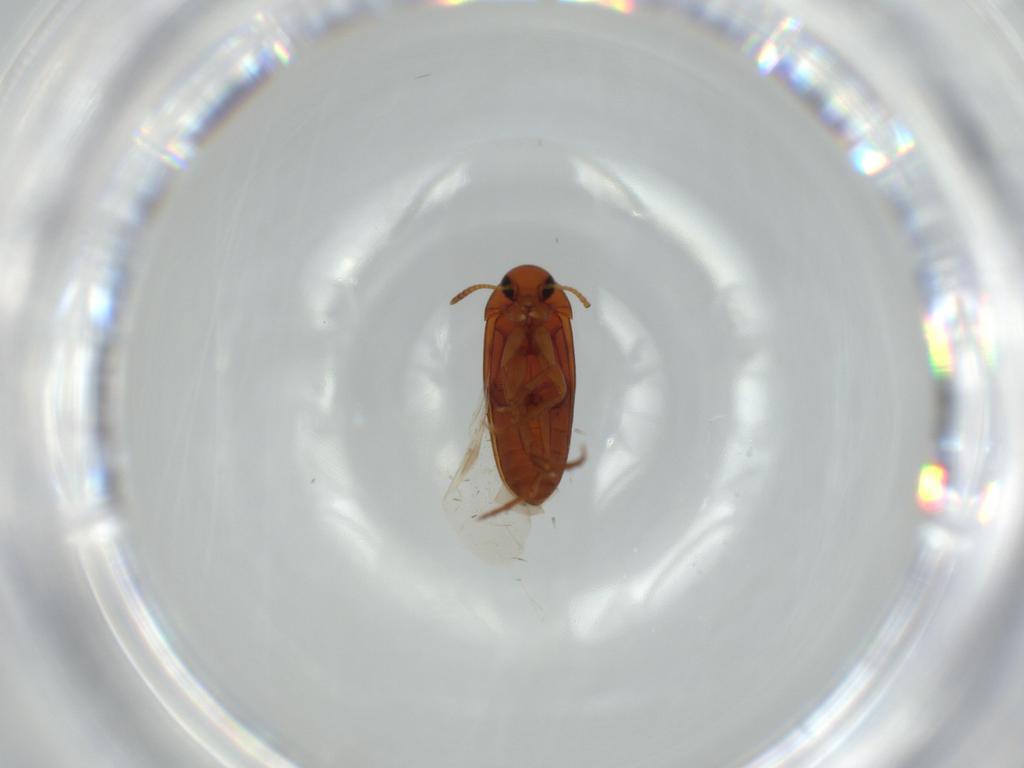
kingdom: Animalia
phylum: Arthropoda
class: Insecta
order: Coleoptera
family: Scraptiidae
